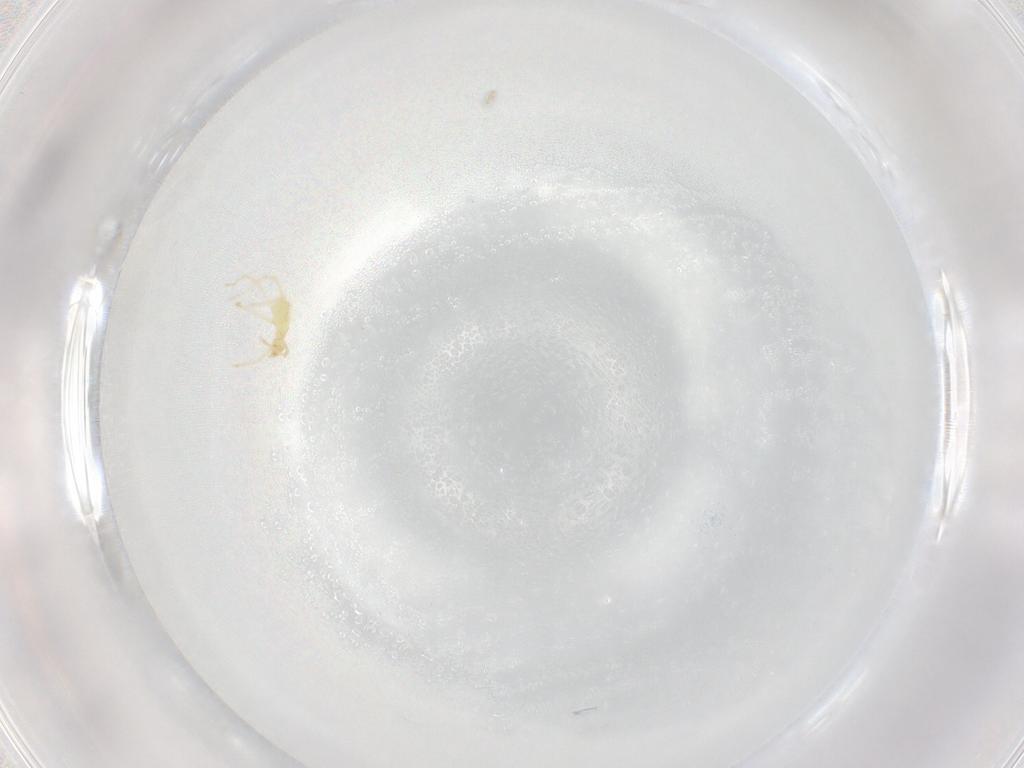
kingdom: Animalia
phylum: Arthropoda
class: Arachnida
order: Trombidiformes
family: Erythraeidae
